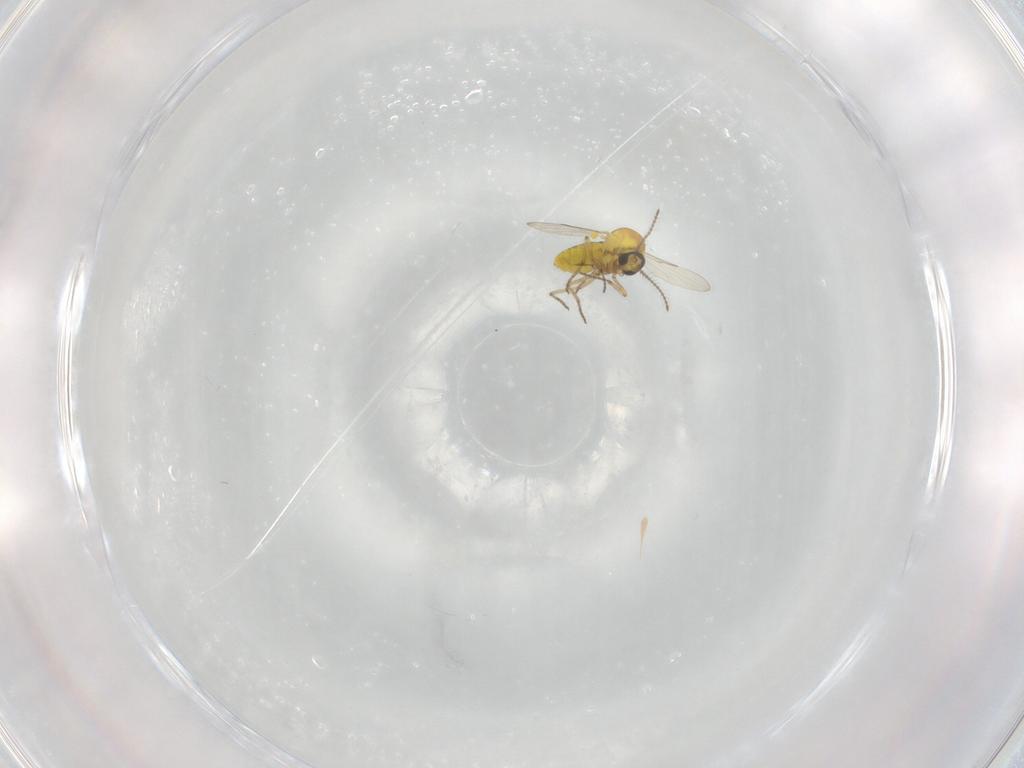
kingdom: Animalia
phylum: Arthropoda
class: Insecta
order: Diptera
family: Ceratopogonidae
